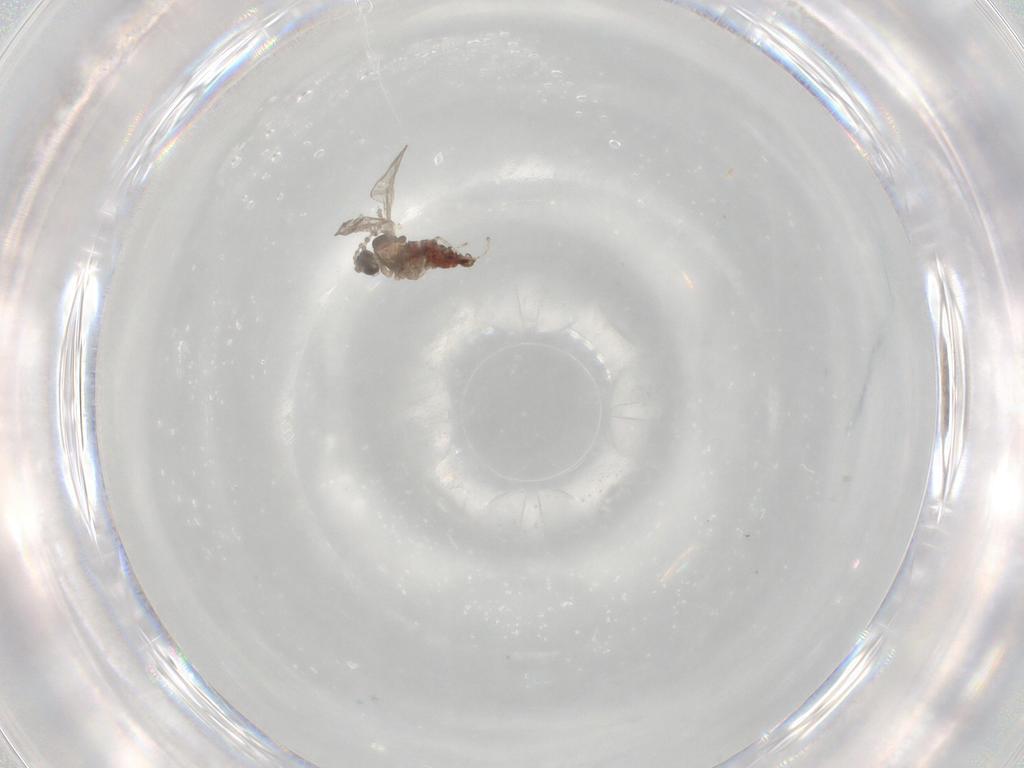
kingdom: Animalia
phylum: Arthropoda
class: Insecta
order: Diptera
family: Cecidomyiidae
